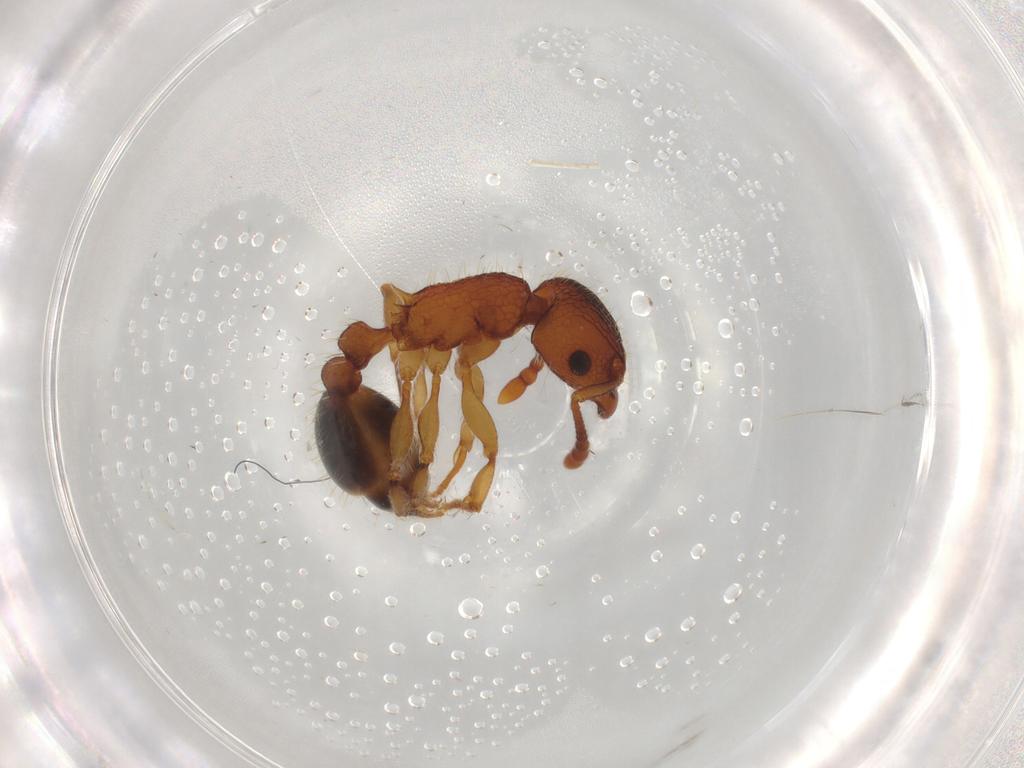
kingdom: Animalia
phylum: Arthropoda
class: Insecta
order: Hymenoptera
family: Formicidae
